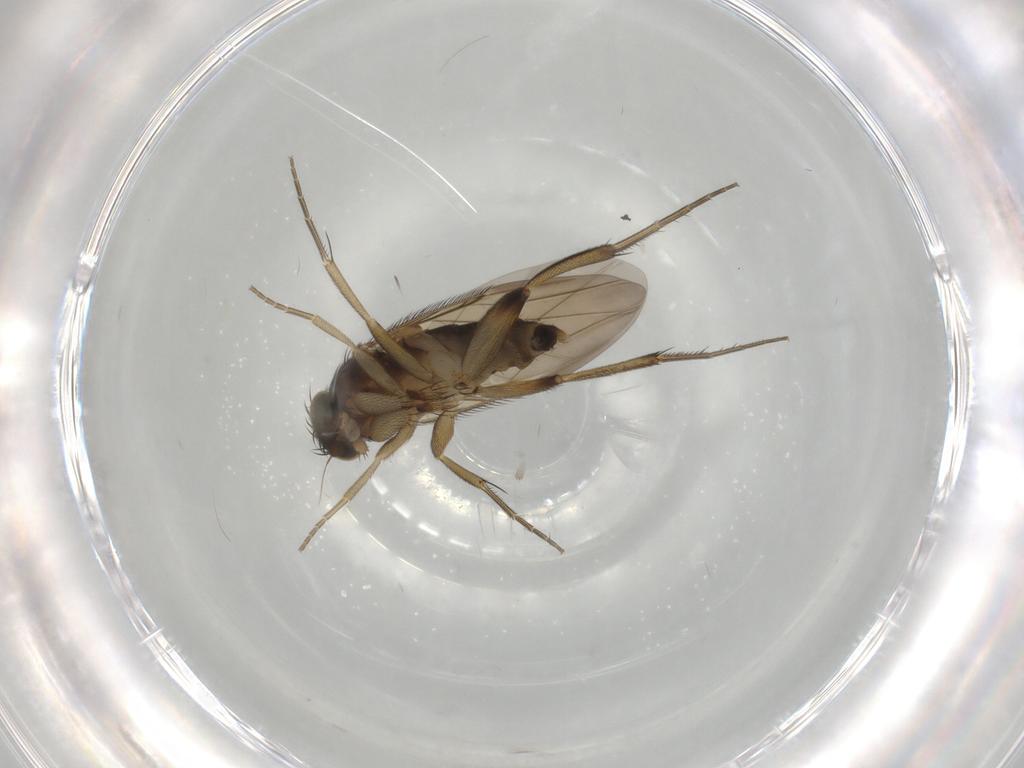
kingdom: Animalia
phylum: Arthropoda
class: Insecta
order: Diptera
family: Phoridae
